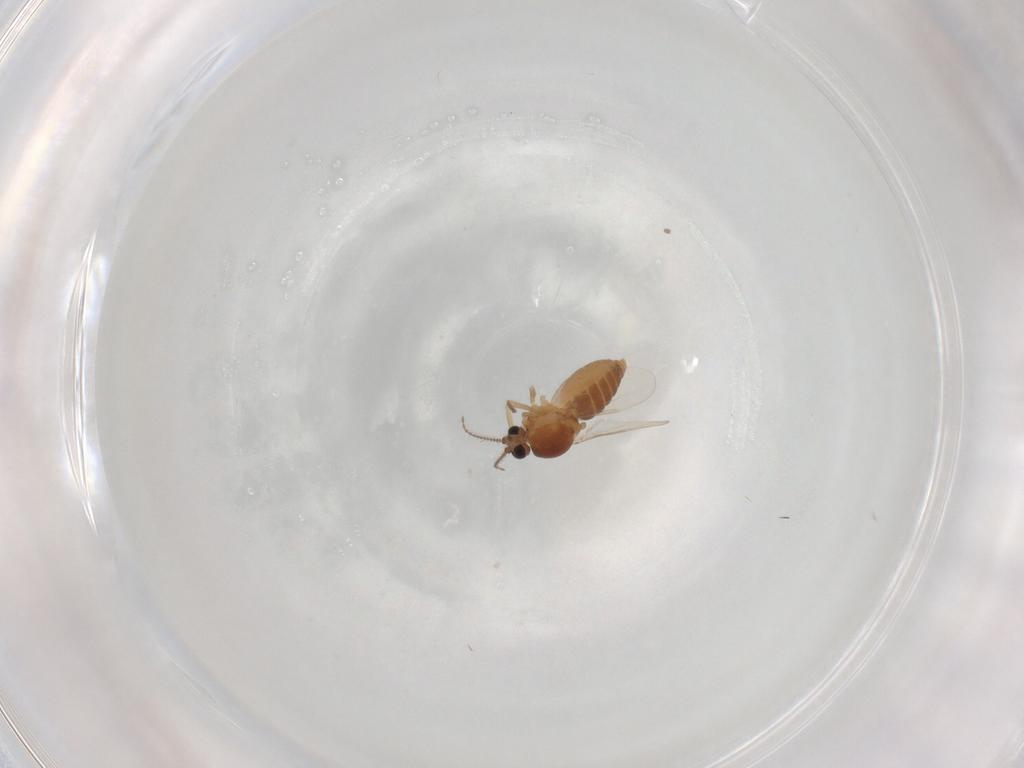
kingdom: Animalia
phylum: Arthropoda
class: Insecta
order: Diptera
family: Ceratopogonidae
